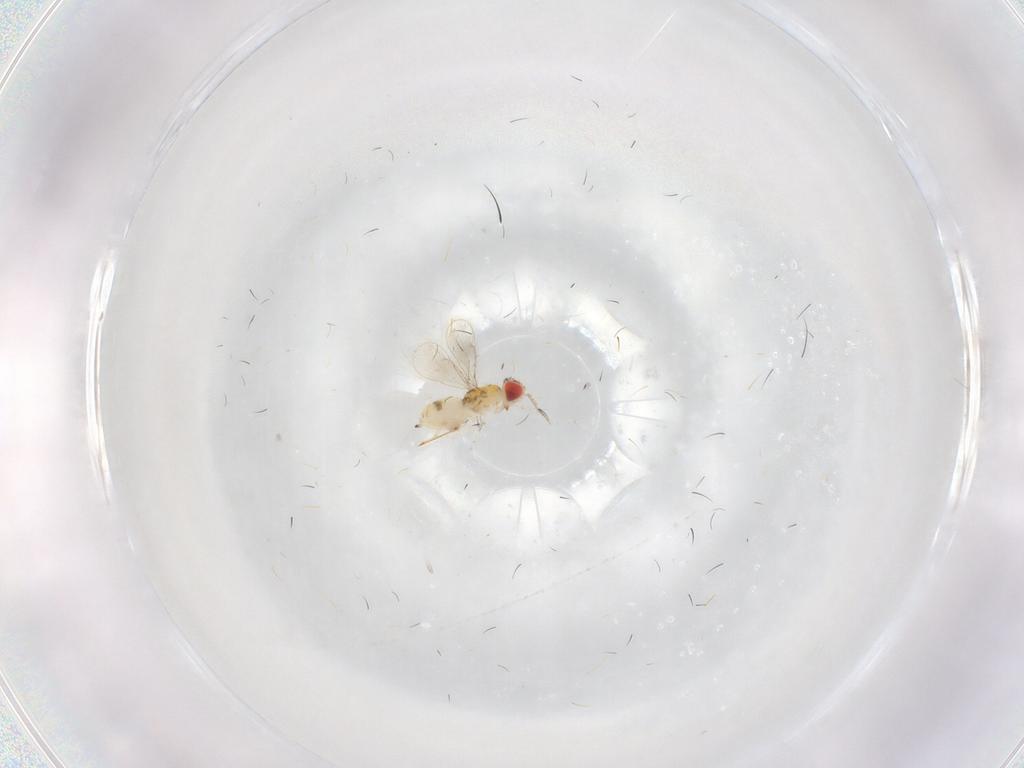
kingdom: Animalia
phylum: Arthropoda
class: Insecta
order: Hymenoptera
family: Eulophidae
